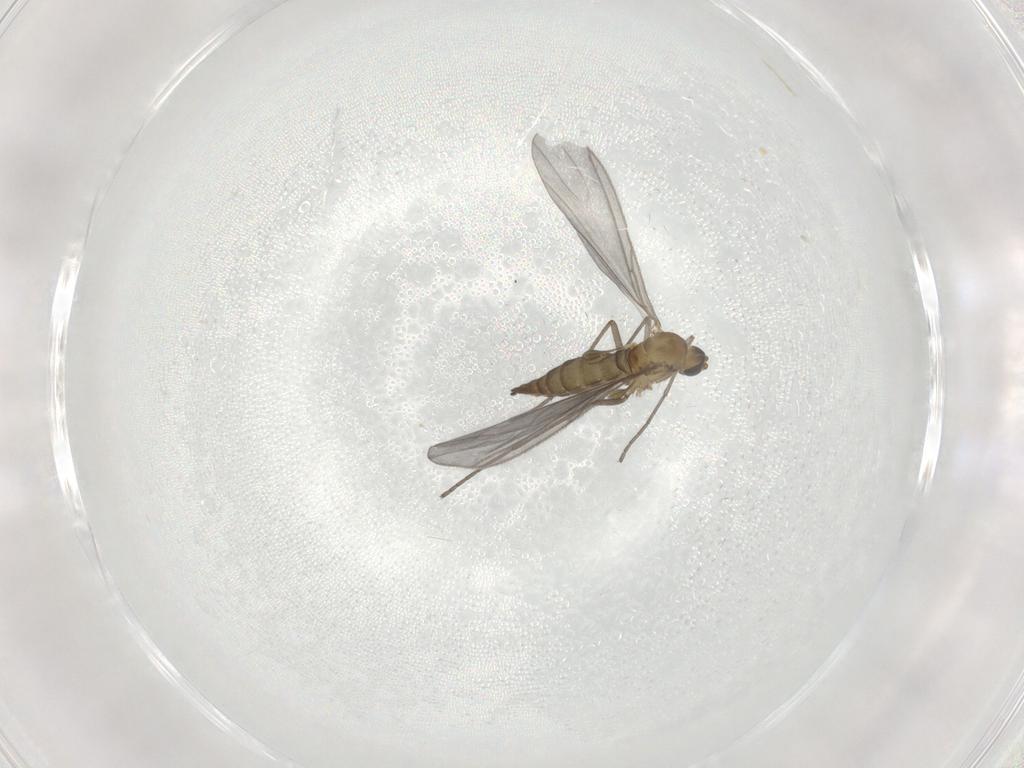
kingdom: Animalia
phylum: Arthropoda
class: Insecta
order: Diptera
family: Sciaridae
